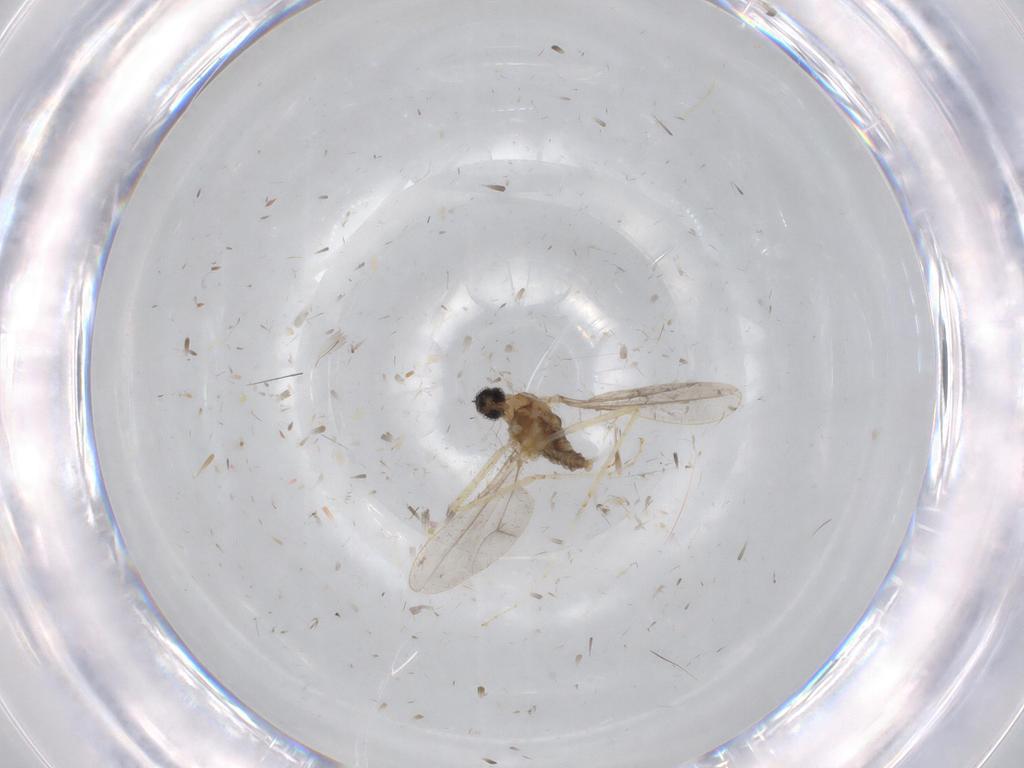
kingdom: Animalia
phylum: Arthropoda
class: Insecta
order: Diptera
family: Cecidomyiidae
